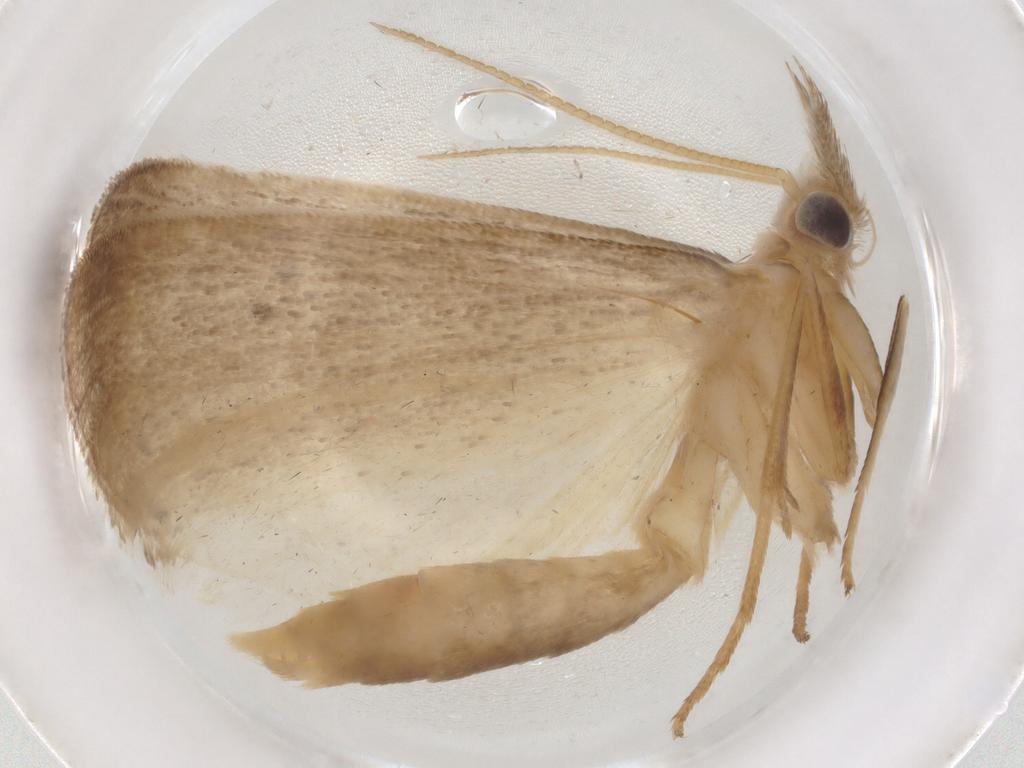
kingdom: Animalia
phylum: Arthropoda
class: Insecta
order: Lepidoptera
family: Crambidae
